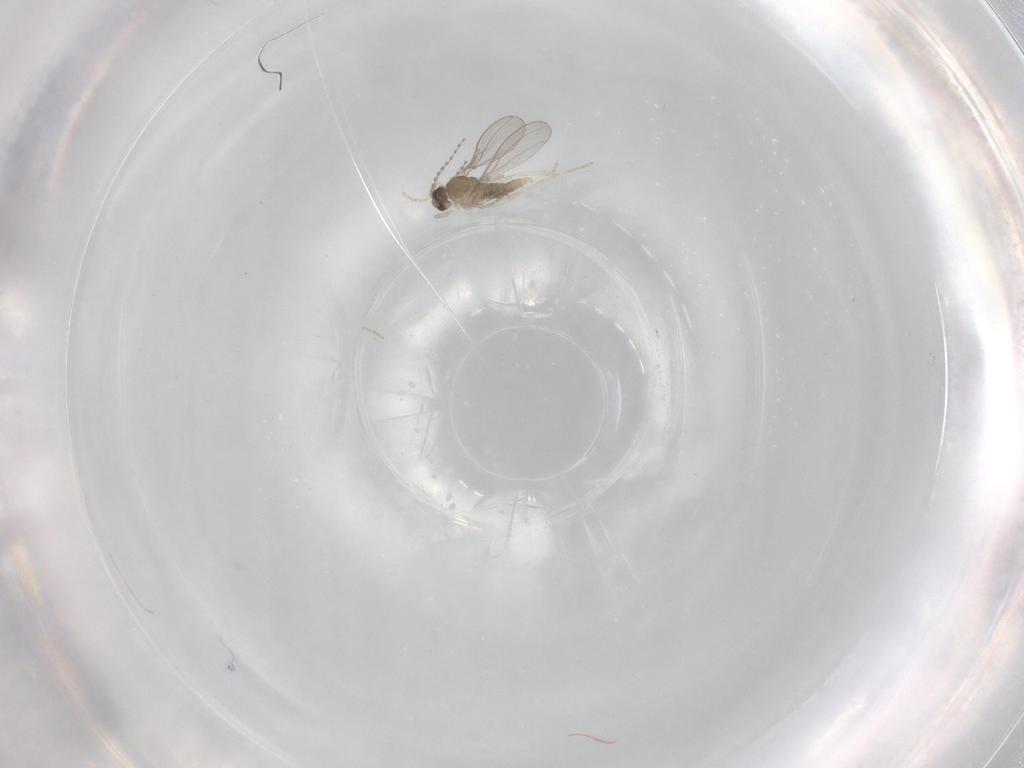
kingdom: Animalia
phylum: Arthropoda
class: Insecta
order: Diptera
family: Cecidomyiidae
